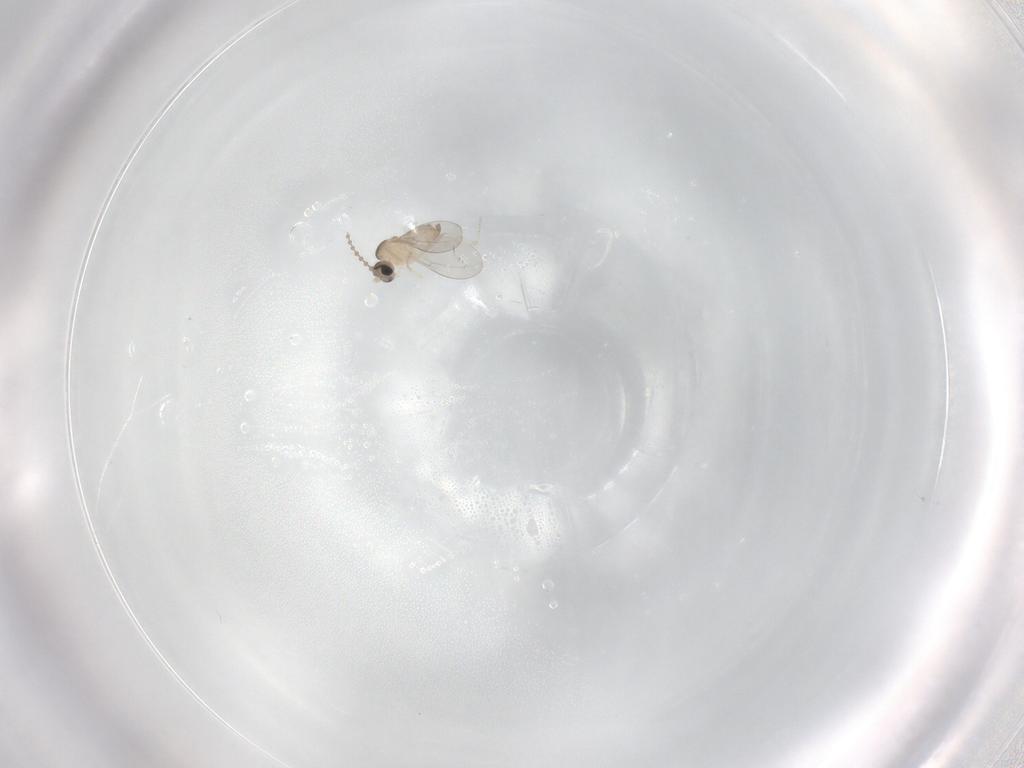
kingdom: Animalia
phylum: Arthropoda
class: Insecta
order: Diptera
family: Cecidomyiidae
